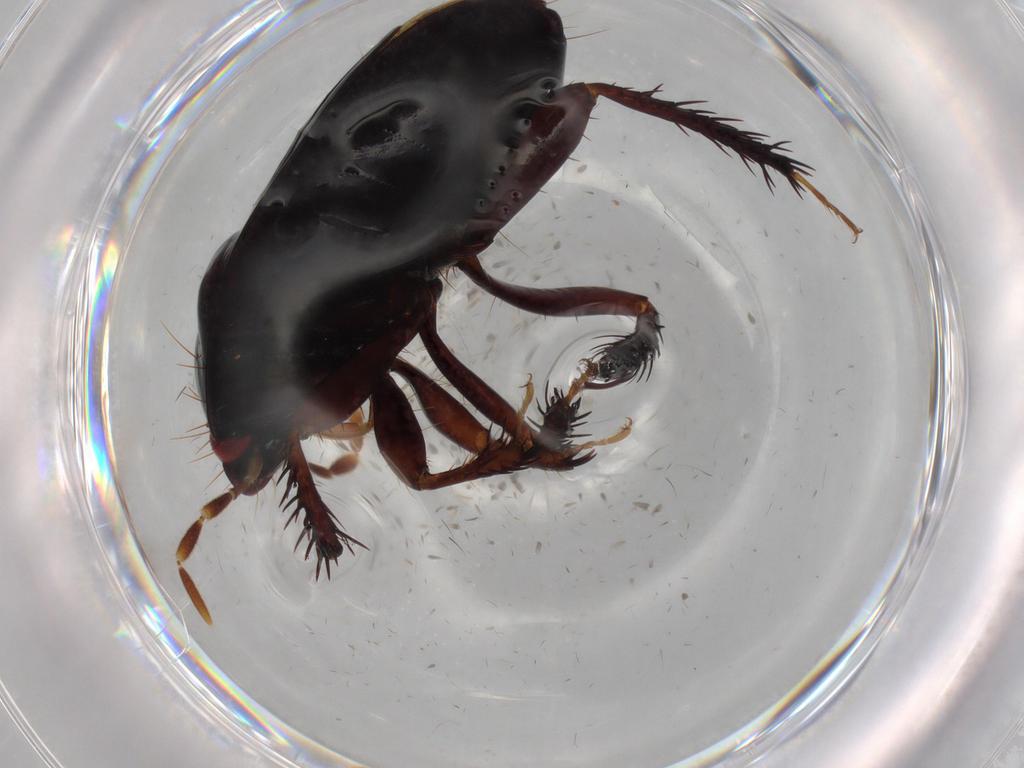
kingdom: Animalia
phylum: Arthropoda
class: Insecta
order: Hemiptera
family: Cydnidae
